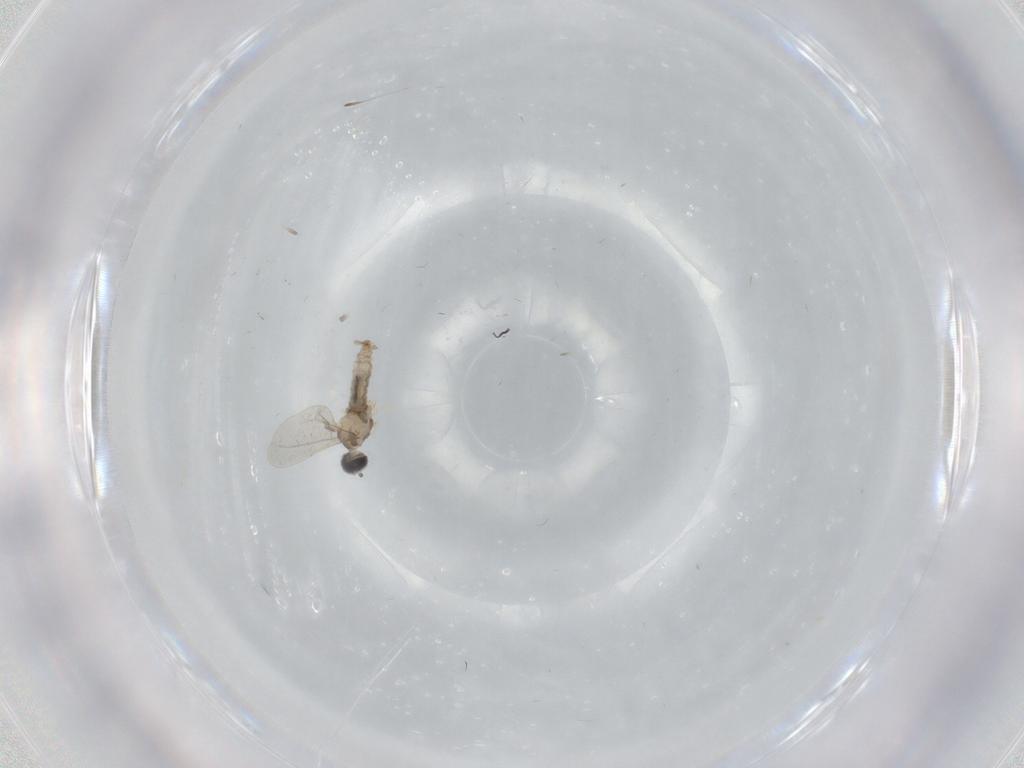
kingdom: Animalia
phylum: Arthropoda
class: Insecta
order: Diptera
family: Cecidomyiidae
